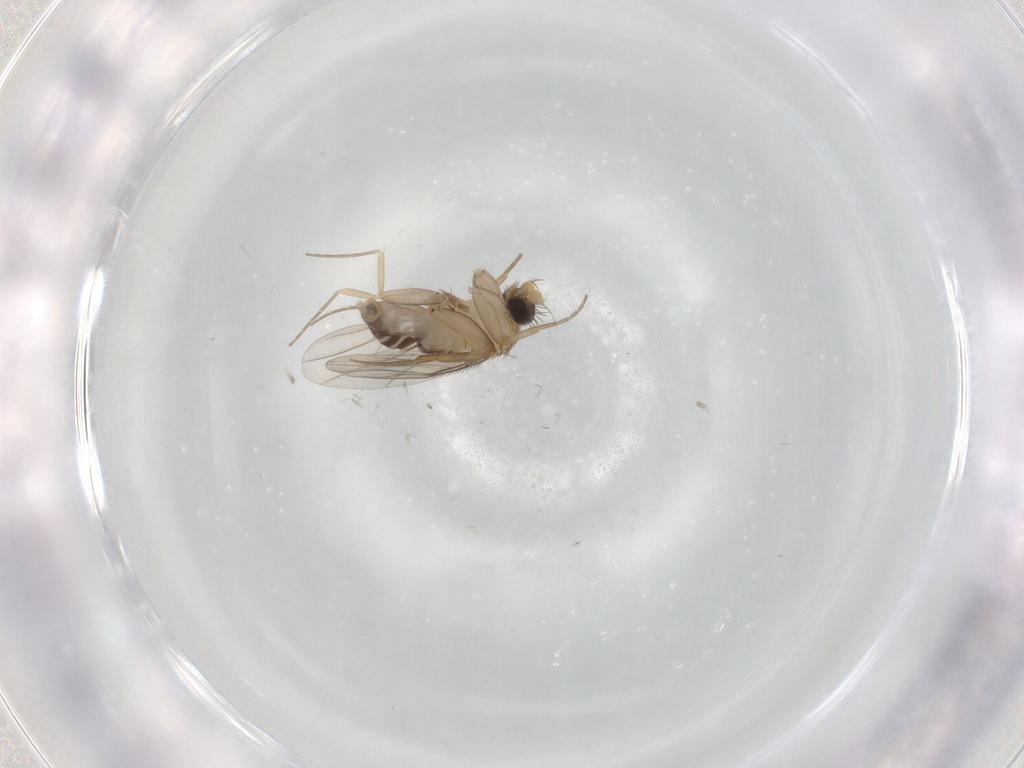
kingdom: Animalia
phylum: Arthropoda
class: Insecta
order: Diptera
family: Phoridae
